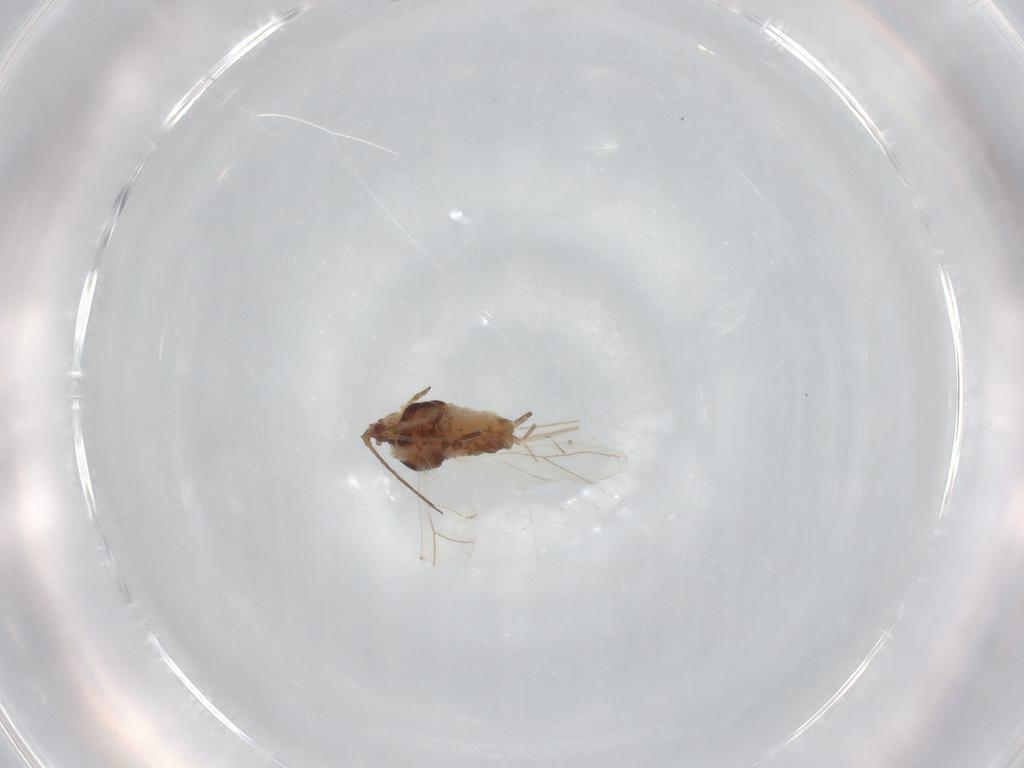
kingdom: Animalia
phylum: Arthropoda
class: Insecta
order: Hemiptera
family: Aphididae
